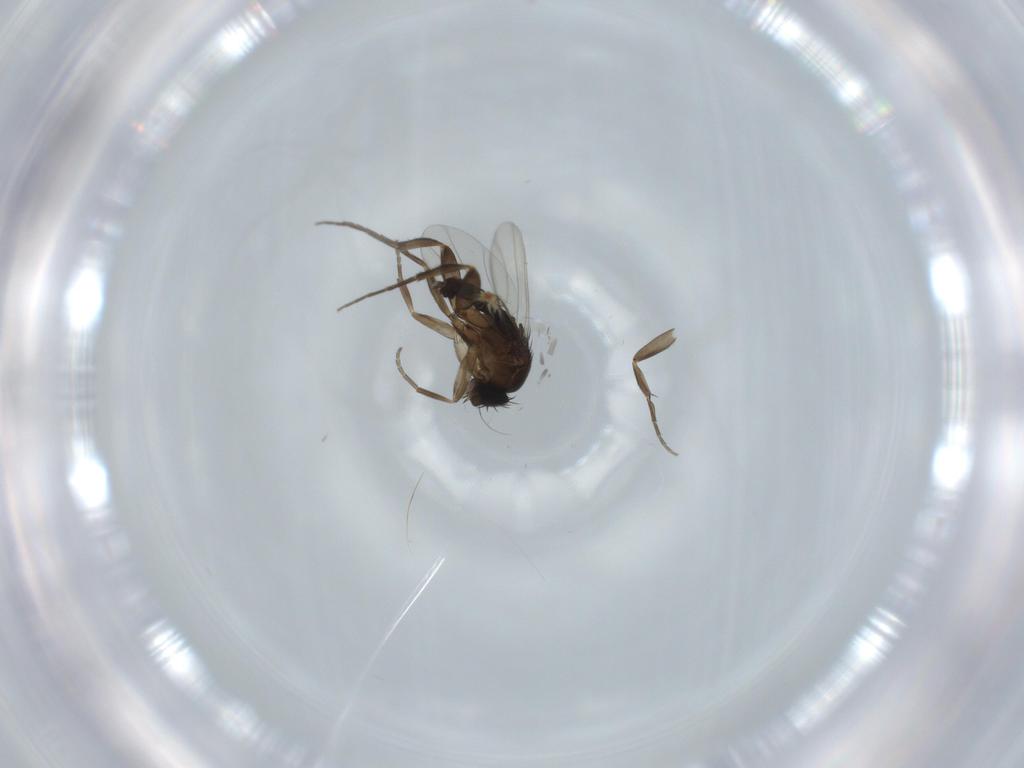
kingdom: Animalia
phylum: Arthropoda
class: Insecta
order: Diptera
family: Phoridae
